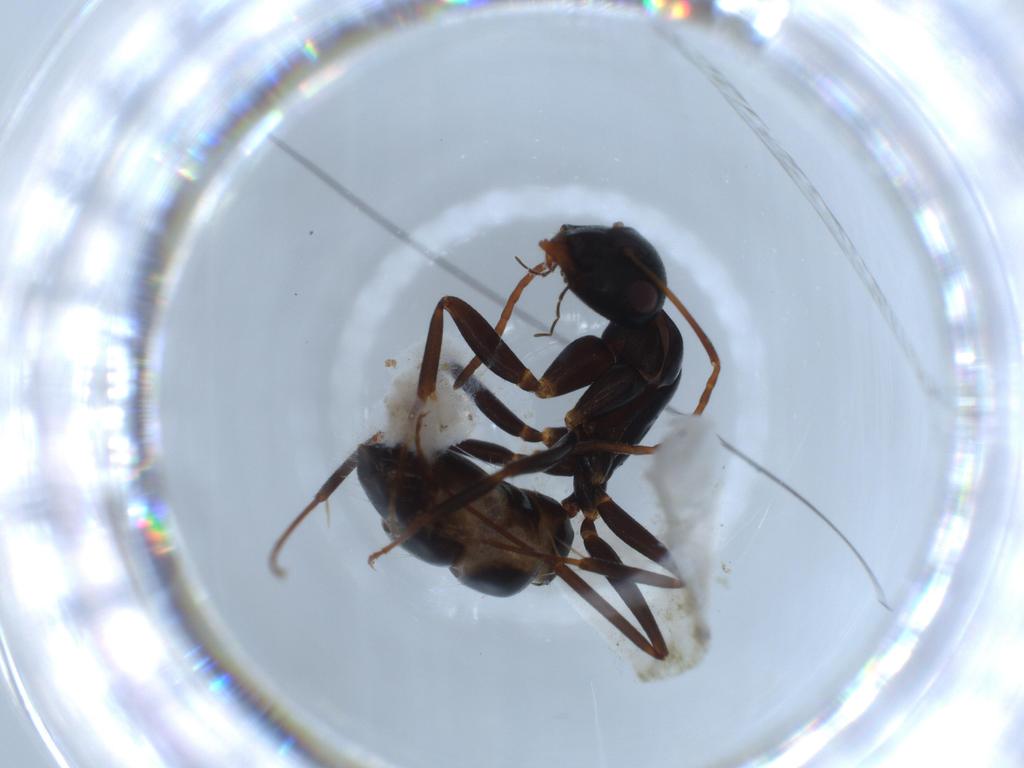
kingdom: Animalia
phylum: Arthropoda
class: Insecta
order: Hymenoptera
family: Formicidae
